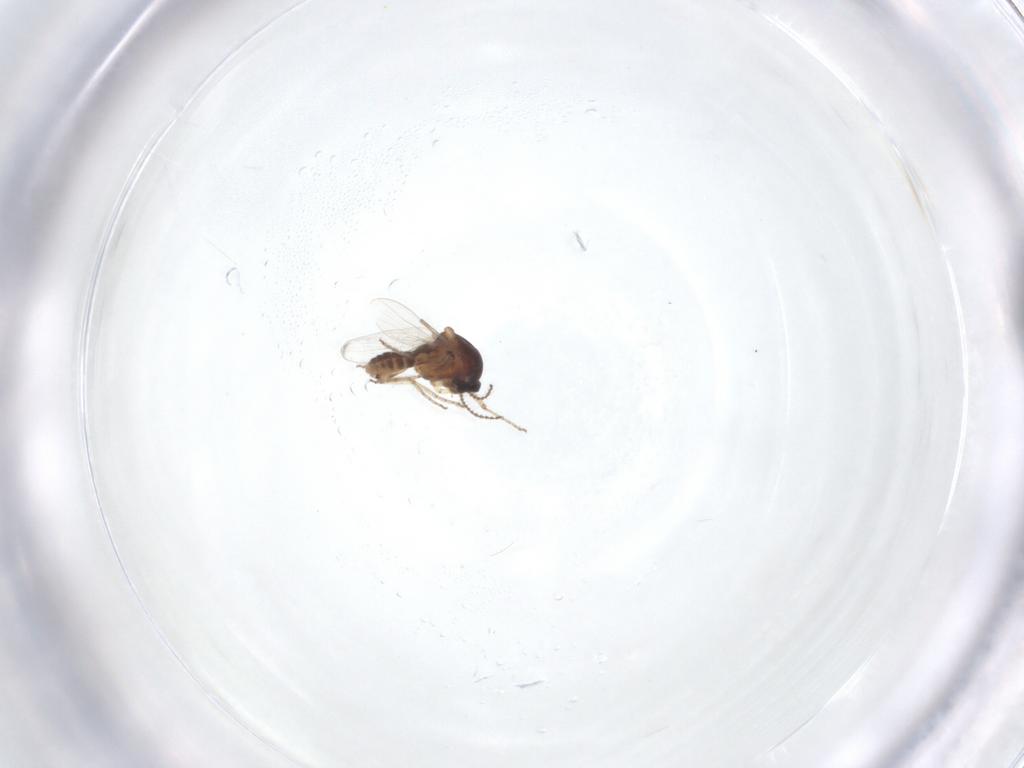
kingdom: Animalia
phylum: Arthropoda
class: Insecta
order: Diptera
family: Ceratopogonidae
